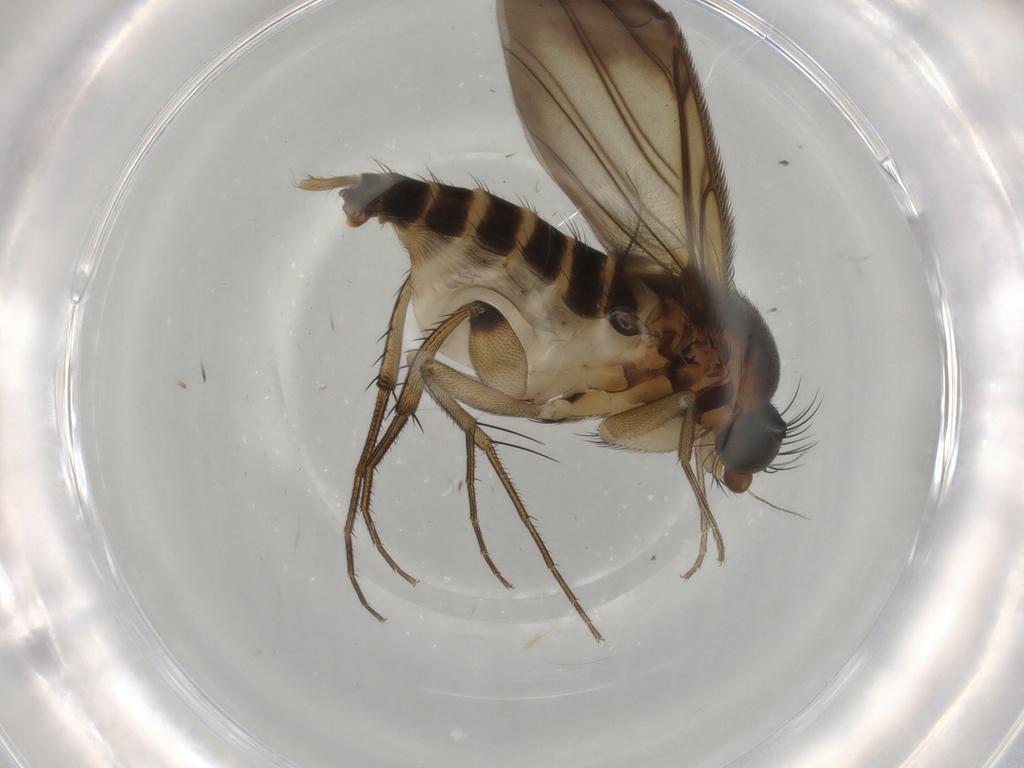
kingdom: Animalia
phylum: Arthropoda
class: Insecta
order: Diptera
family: Phoridae
